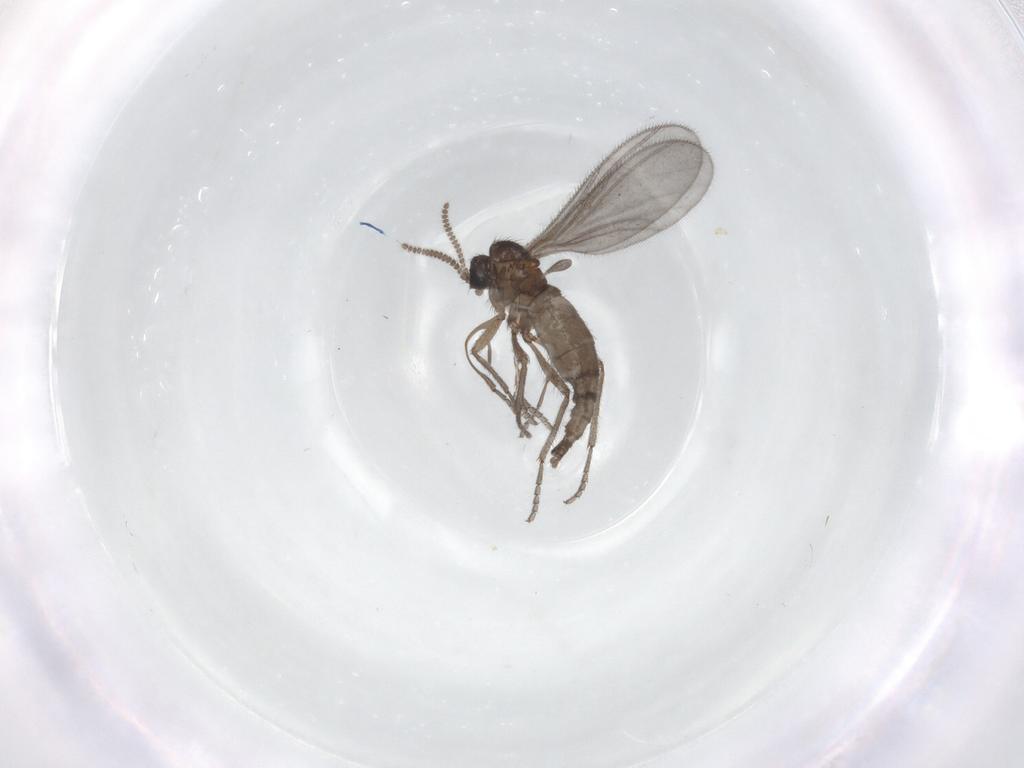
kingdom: Animalia
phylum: Arthropoda
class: Insecta
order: Diptera
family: Sciaridae
